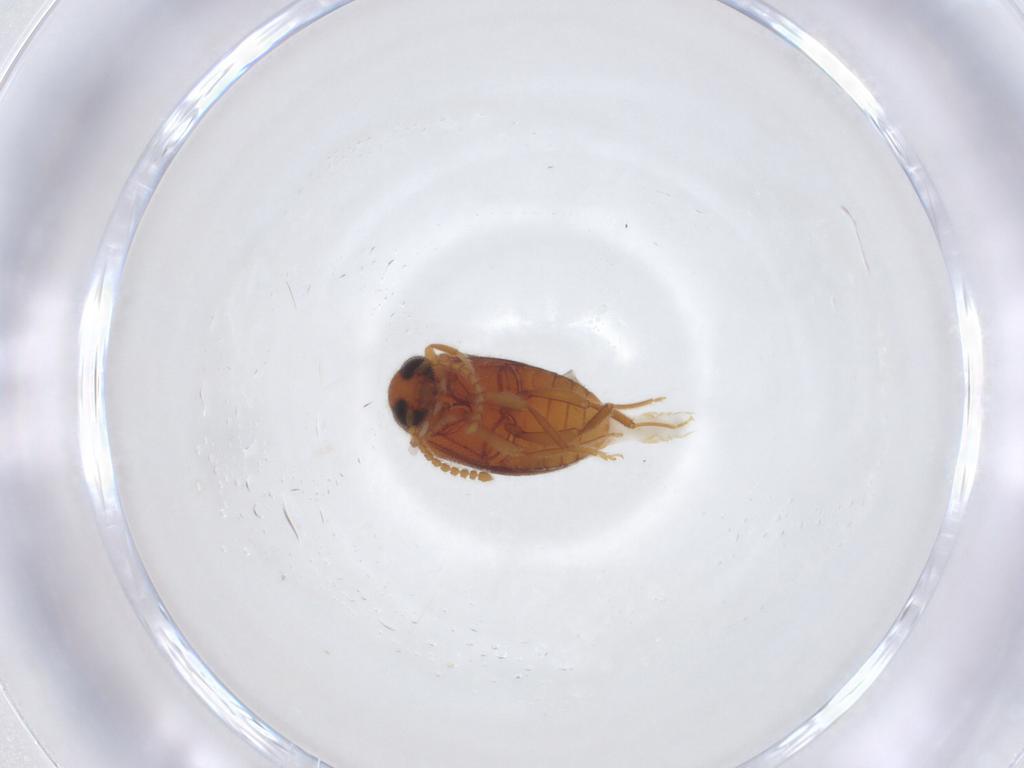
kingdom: Animalia
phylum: Arthropoda
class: Insecta
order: Coleoptera
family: Aderidae
